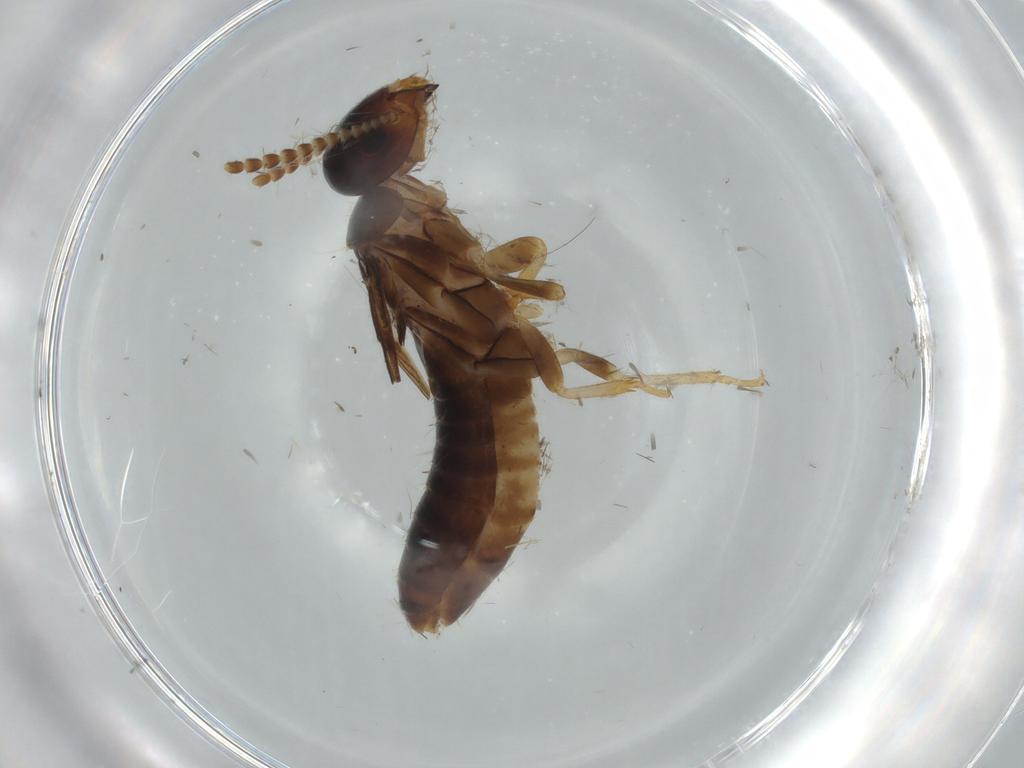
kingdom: Animalia
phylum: Arthropoda
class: Insecta
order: Blattodea
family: Kalotermitidae
